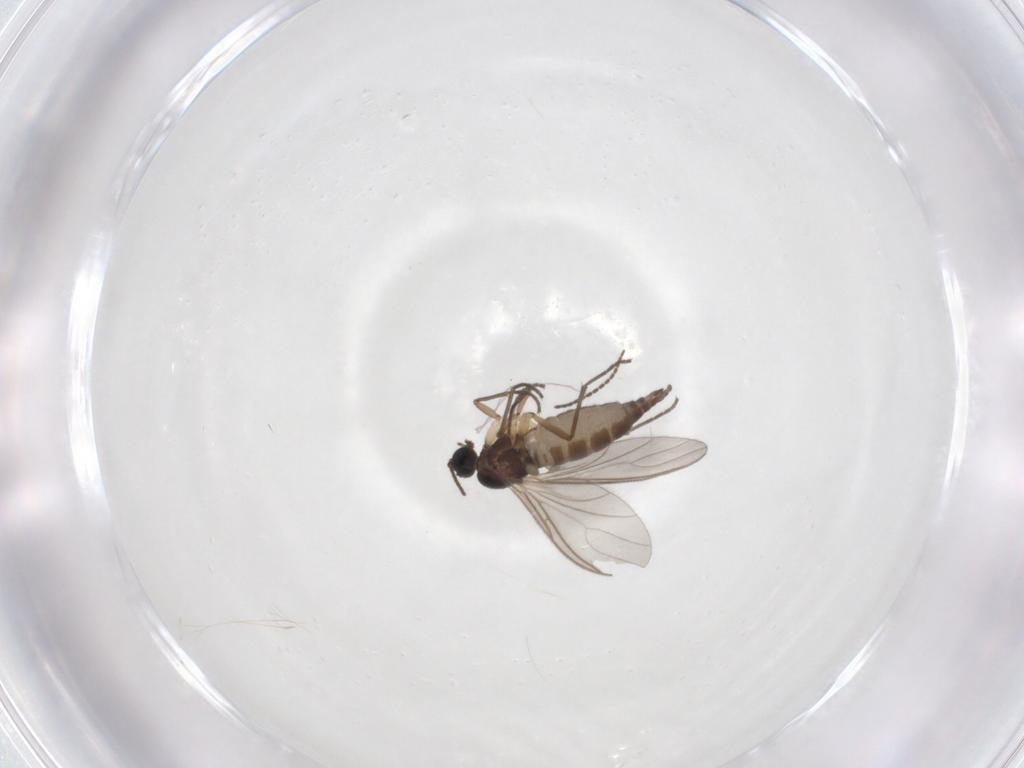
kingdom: Animalia
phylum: Arthropoda
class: Insecta
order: Diptera
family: Sciaridae
